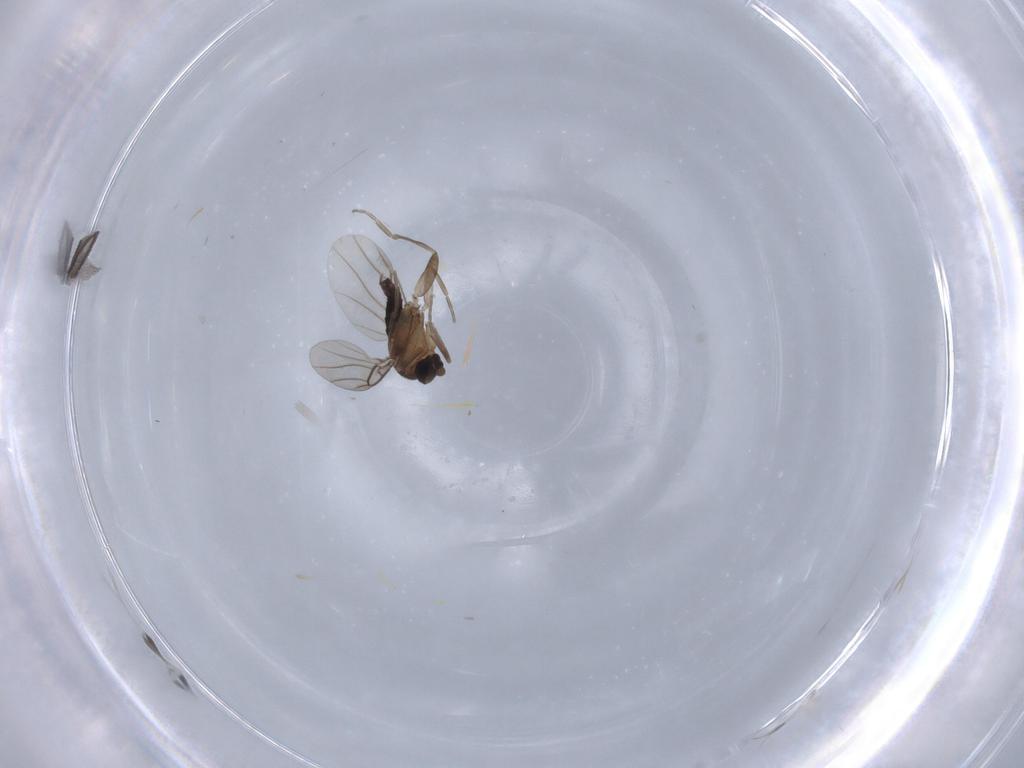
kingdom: Animalia
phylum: Arthropoda
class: Insecta
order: Diptera
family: Phoridae
